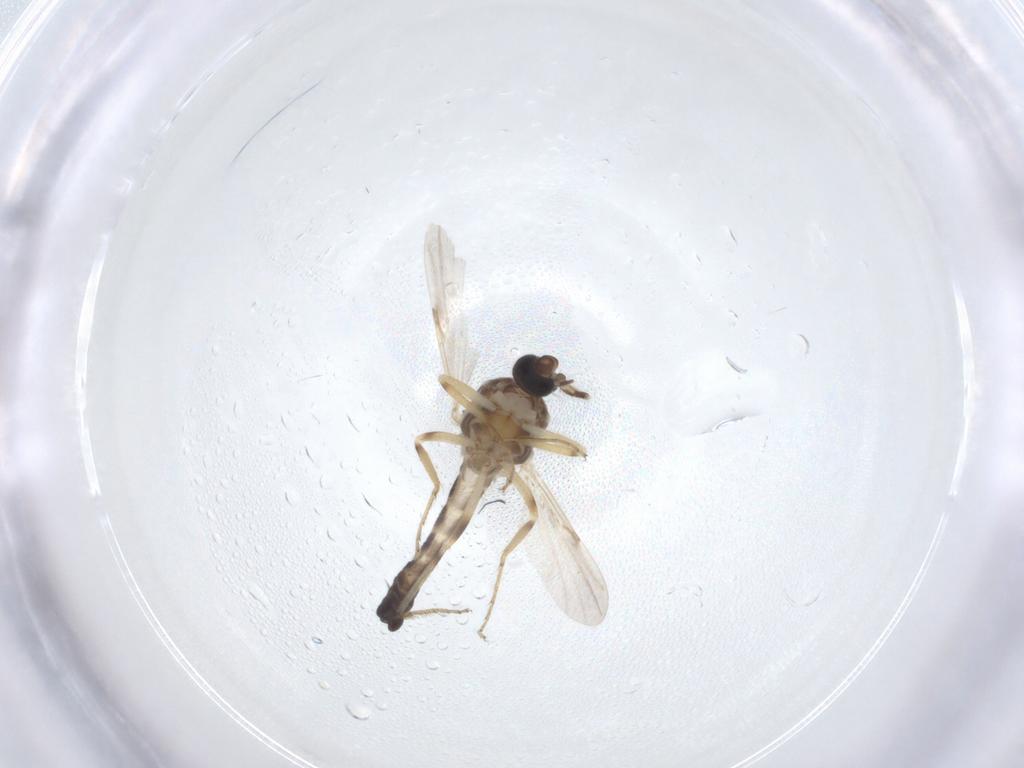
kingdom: Animalia
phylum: Arthropoda
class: Insecta
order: Diptera
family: Ceratopogonidae
